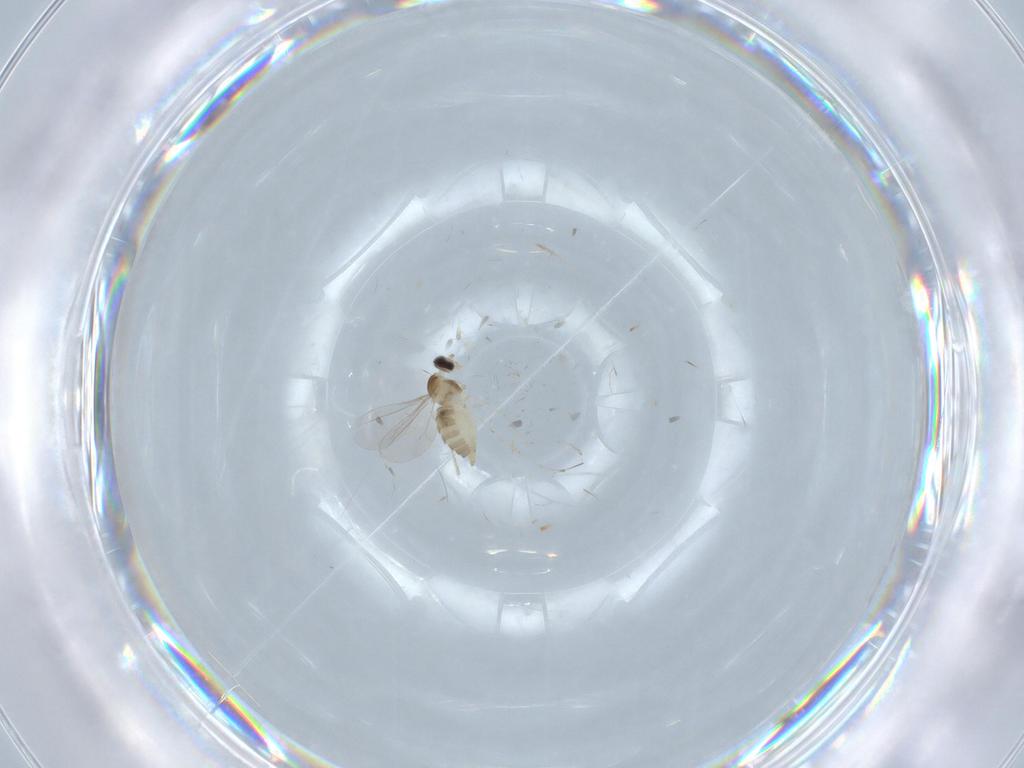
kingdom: Animalia
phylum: Arthropoda
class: Insecta
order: Diptera
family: Cecidomyiidae
